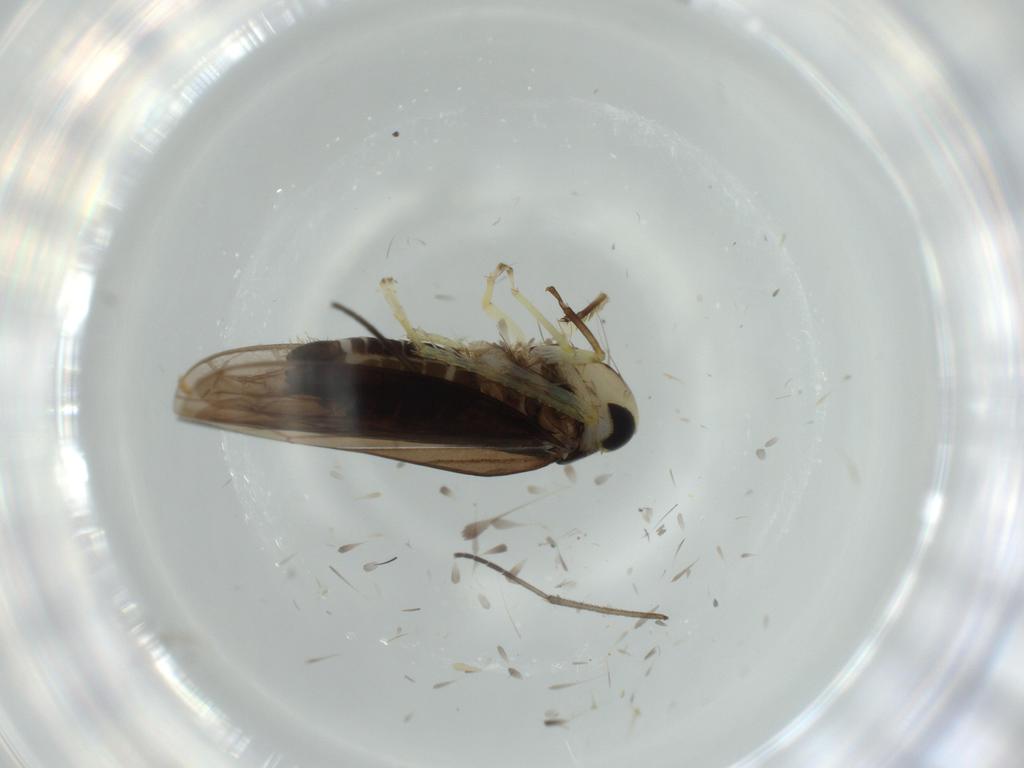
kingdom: Animalia
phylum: Arthropoda
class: Insecta
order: Hemiptera
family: Cicadellidae
